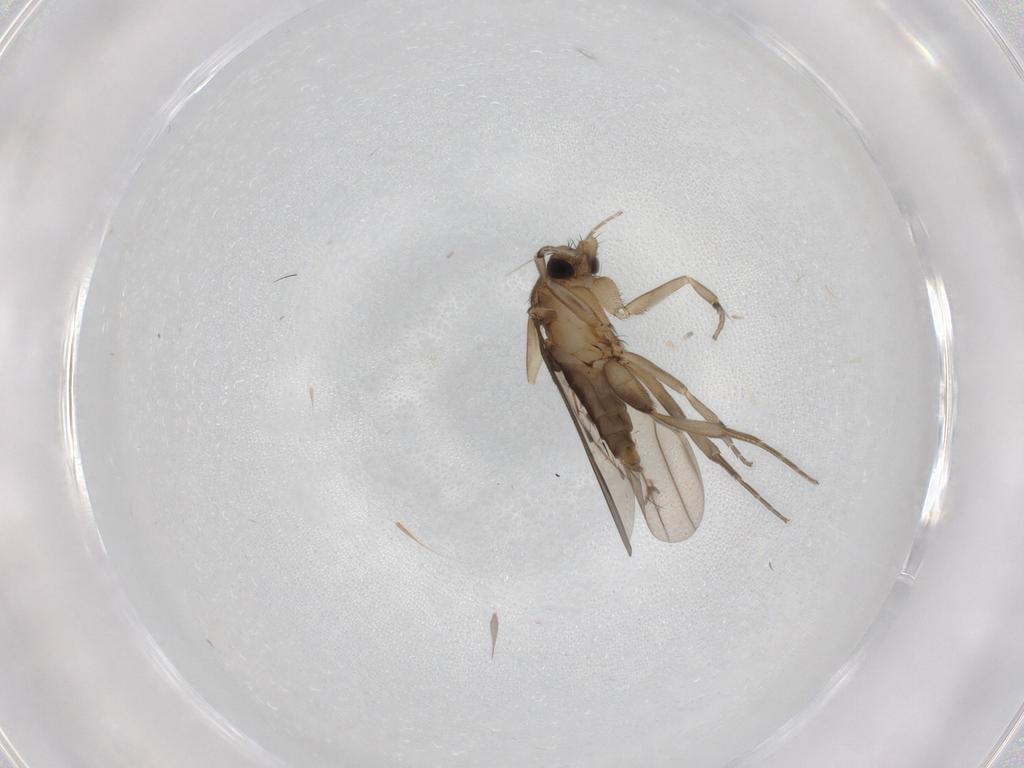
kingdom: Animalia
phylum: Arthropoda
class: Insecta
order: Diptera
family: Phoridae
